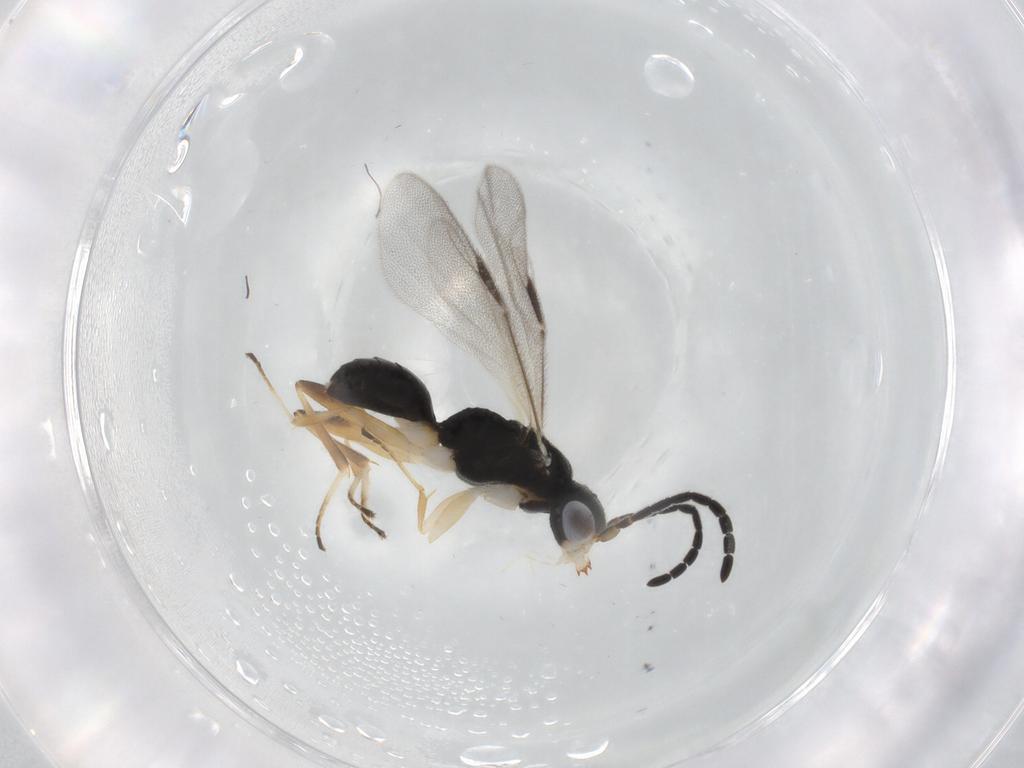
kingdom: Animalia
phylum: Arthropoda
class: Insecta
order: Hymenoptera
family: Dryinidae
